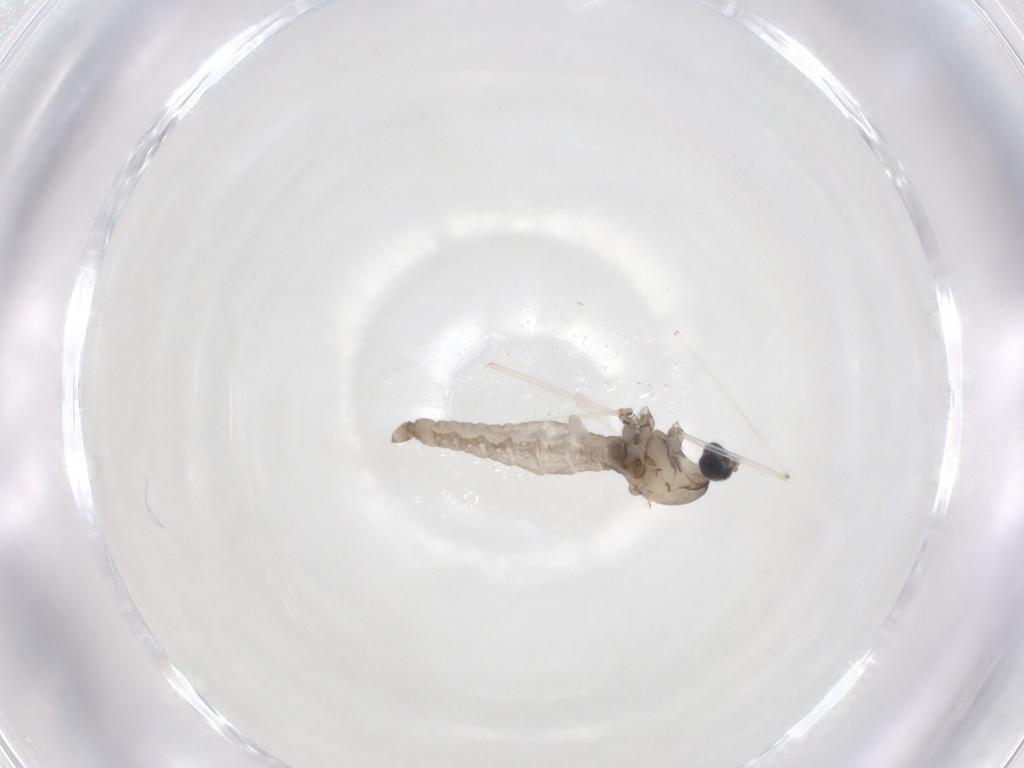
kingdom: Animalia
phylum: Arthropoda
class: Insecta
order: Diptera
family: Cecidomyiidae
